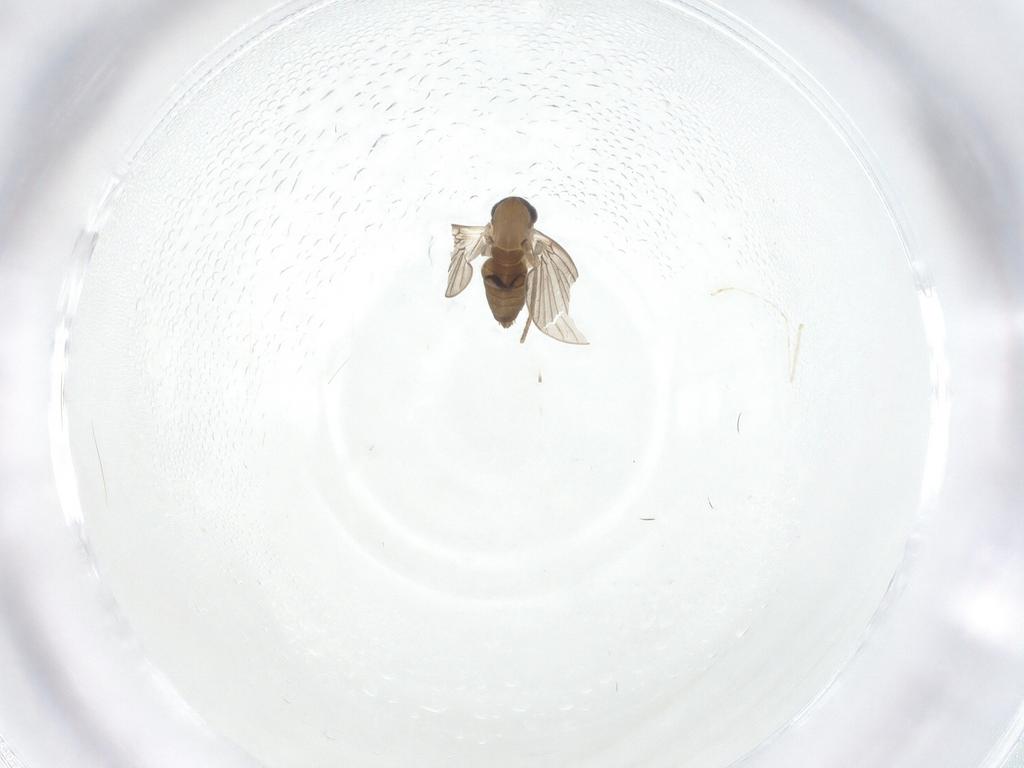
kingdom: Animalia
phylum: Arthropoda
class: Insecta
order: Diptera
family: Cecidomyiidae
